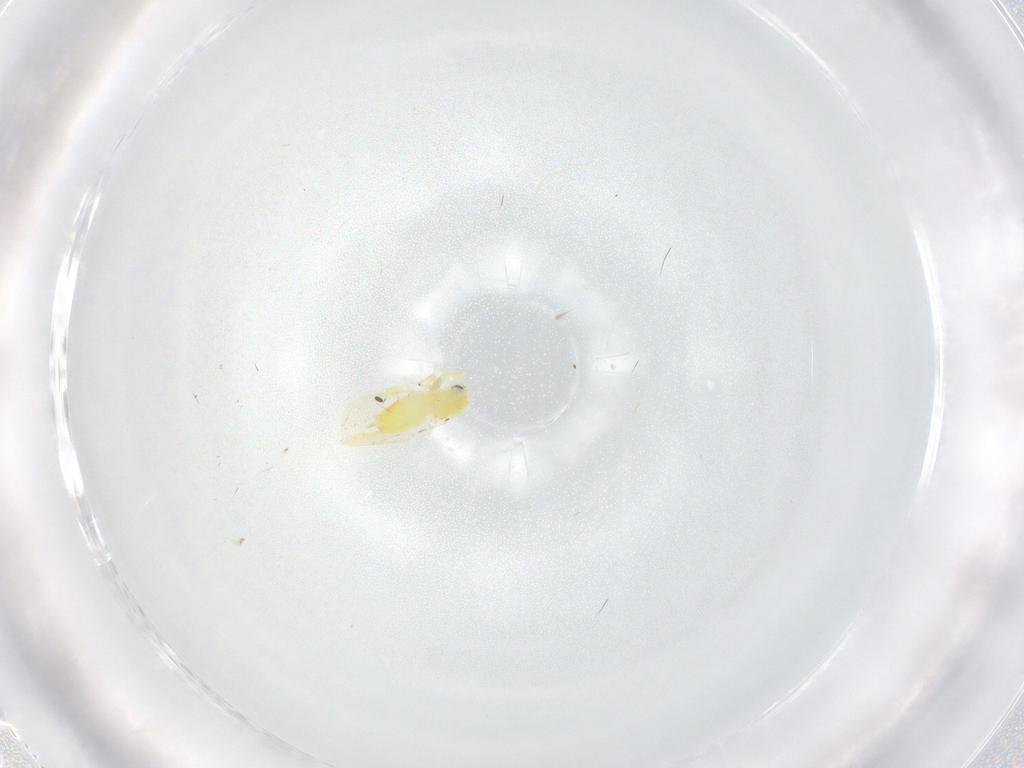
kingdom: Animalia
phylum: Arthropoda
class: Insecta
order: Hemiptera
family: Aleyrodidae
